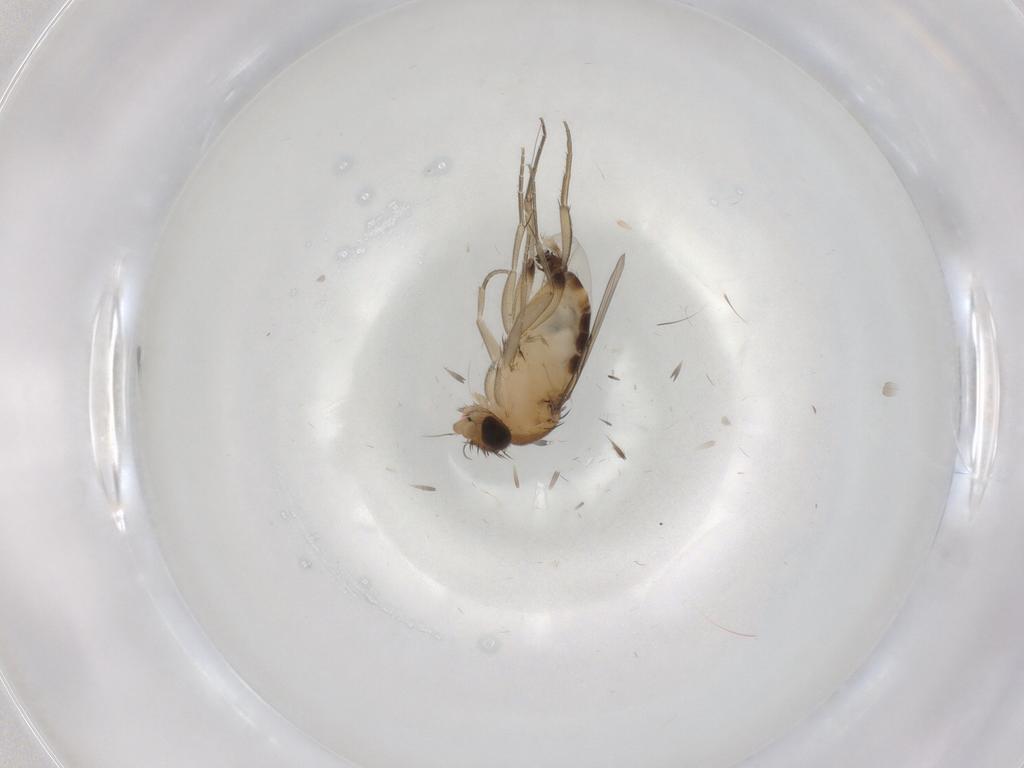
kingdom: Animalia
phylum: Arthropoda
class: Insecta
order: Diptera
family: Phoridae
